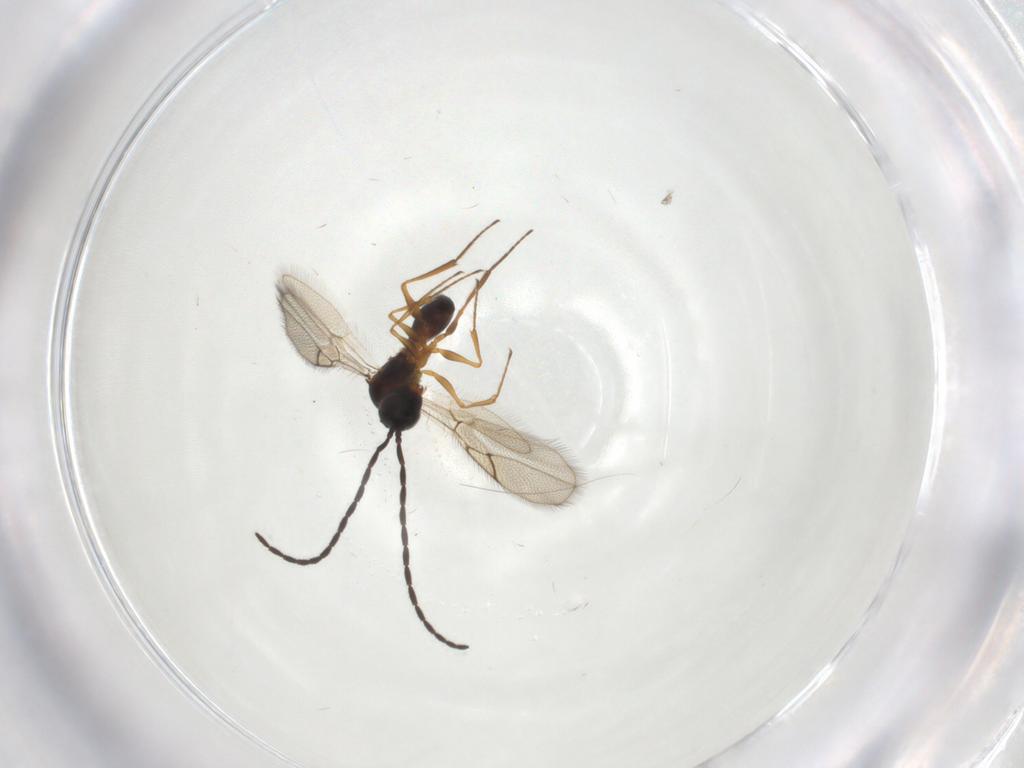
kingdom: Animalia
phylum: Arthropoda
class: Insecta
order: Hymenoptera
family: Figitidae
